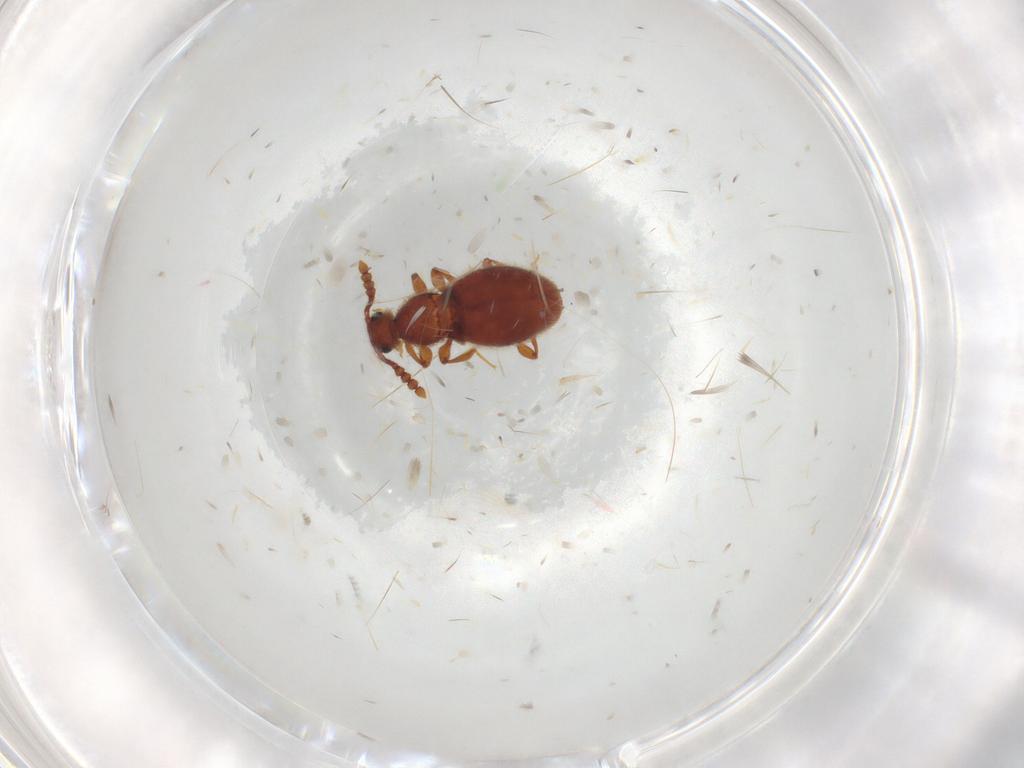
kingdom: Animalia
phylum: Arthropoda
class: Insecta
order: Coleoptera
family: Staphylinidae
